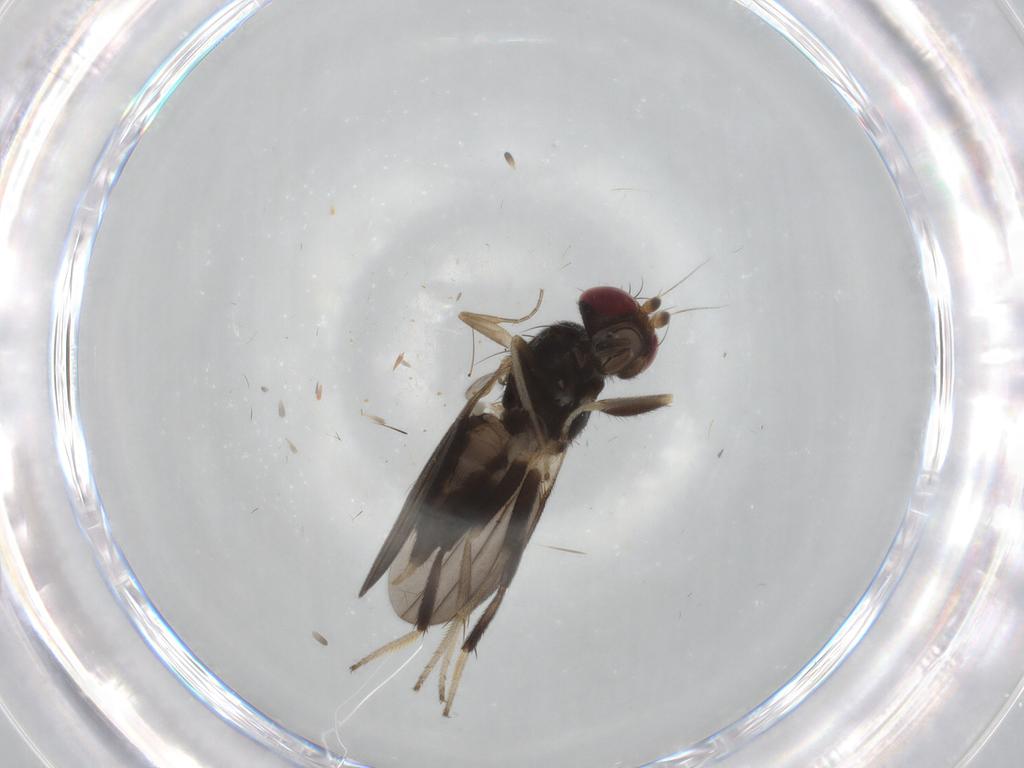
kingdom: Animalia
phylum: Arthropoda
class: Insecta
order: Diptera
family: Clusiidae
